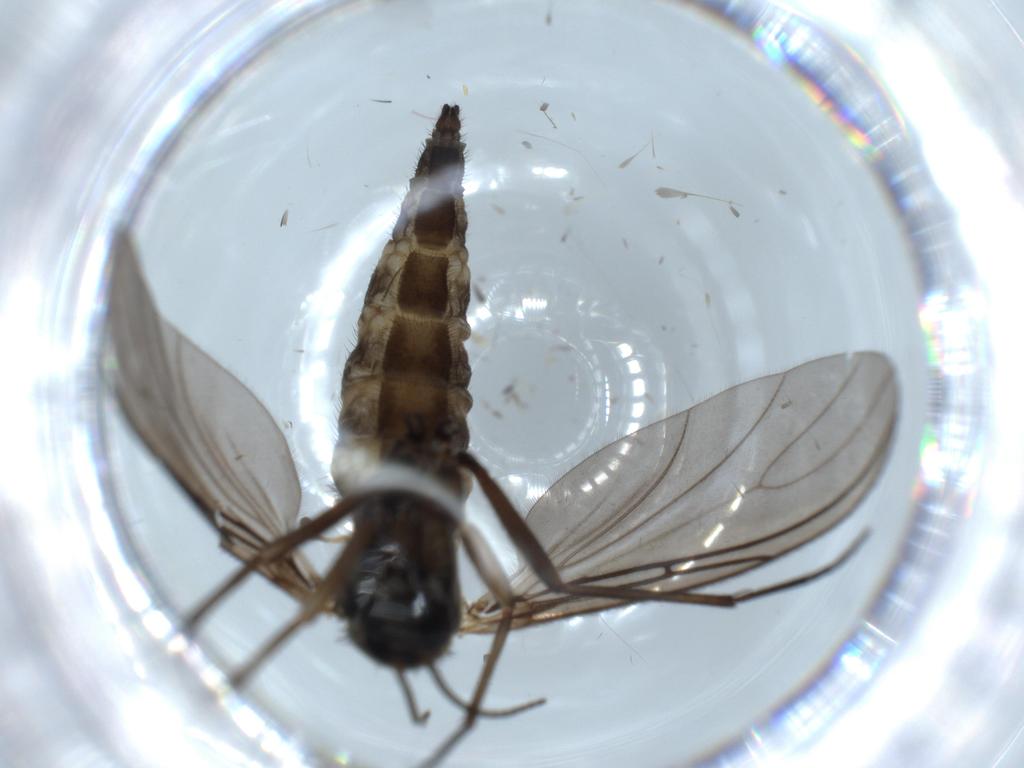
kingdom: Animalia
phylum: Arthropoda
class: Insecta
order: Diptera
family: Sciaridae
